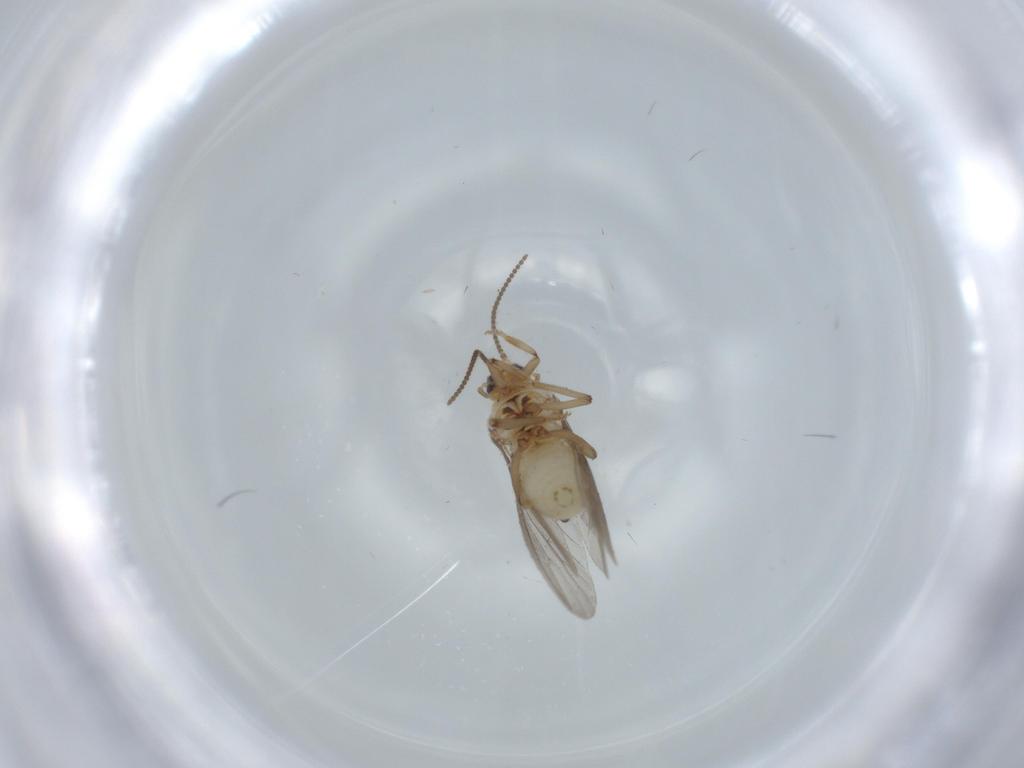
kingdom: Animalia
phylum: Arthropoda
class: Insecta
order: Neuroptera
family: Coniopterygidae
